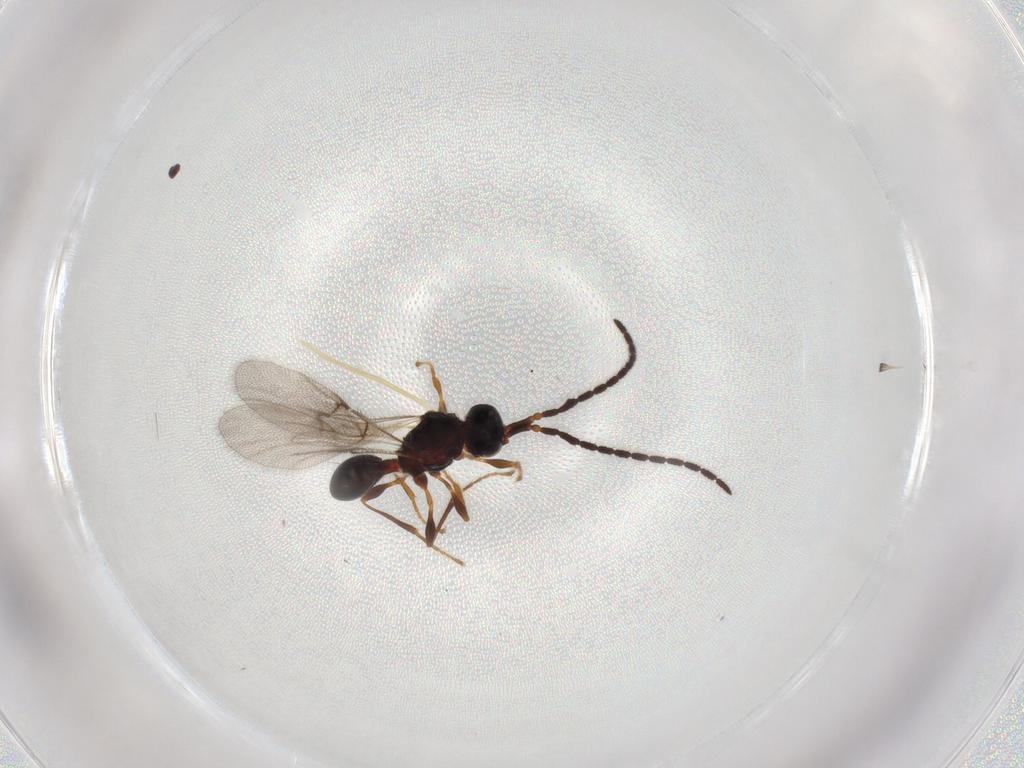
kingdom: Animalia
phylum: Arthropoda
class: Insecta
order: Hymenoptera
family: Diapriidae
